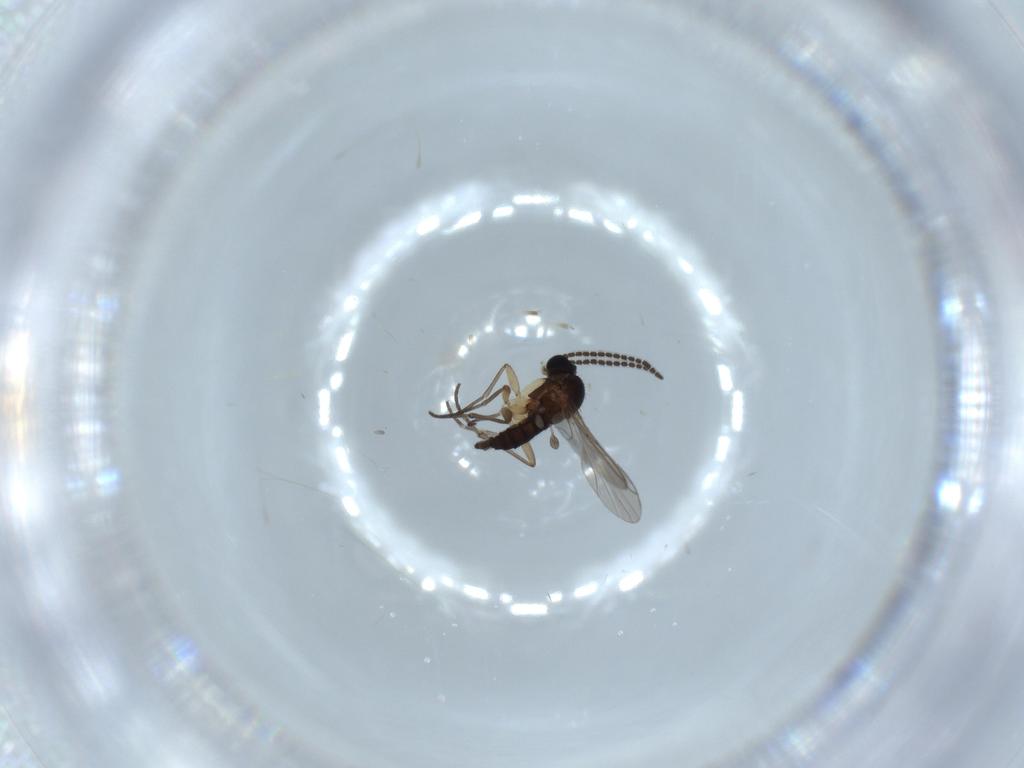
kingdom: Animalia
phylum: Arthropoda
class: Insecta
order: Diptera
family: Sciaridae
